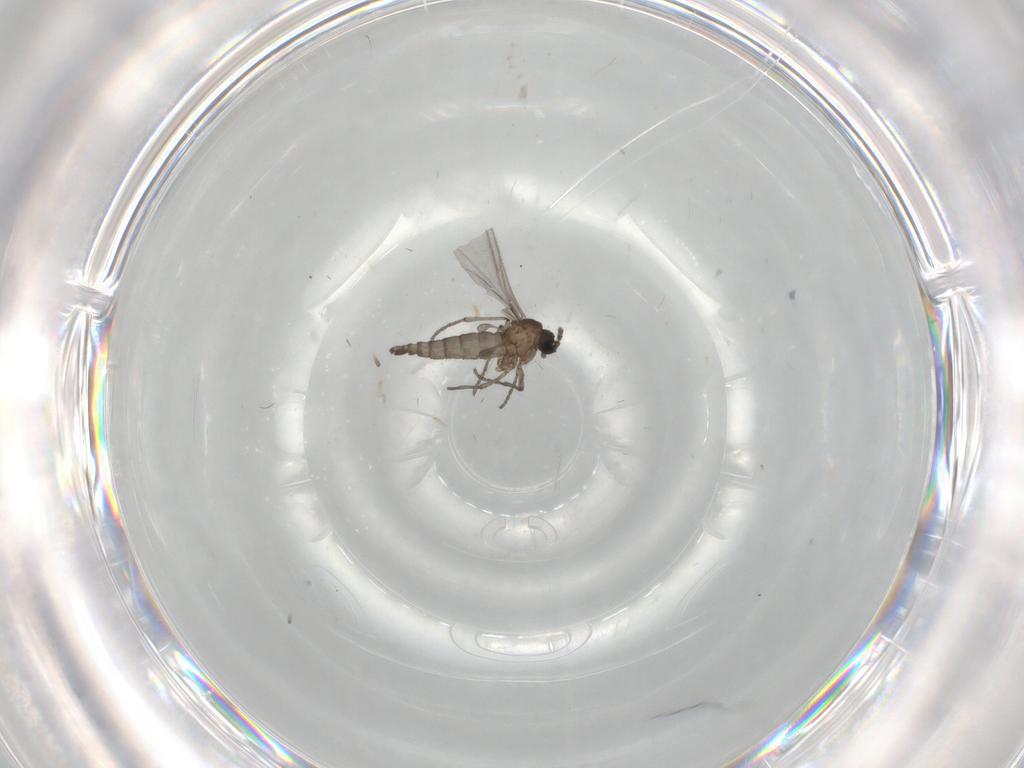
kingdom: Animalia
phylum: Arthropoda
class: Insecta
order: Diptera
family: Sciaridae
